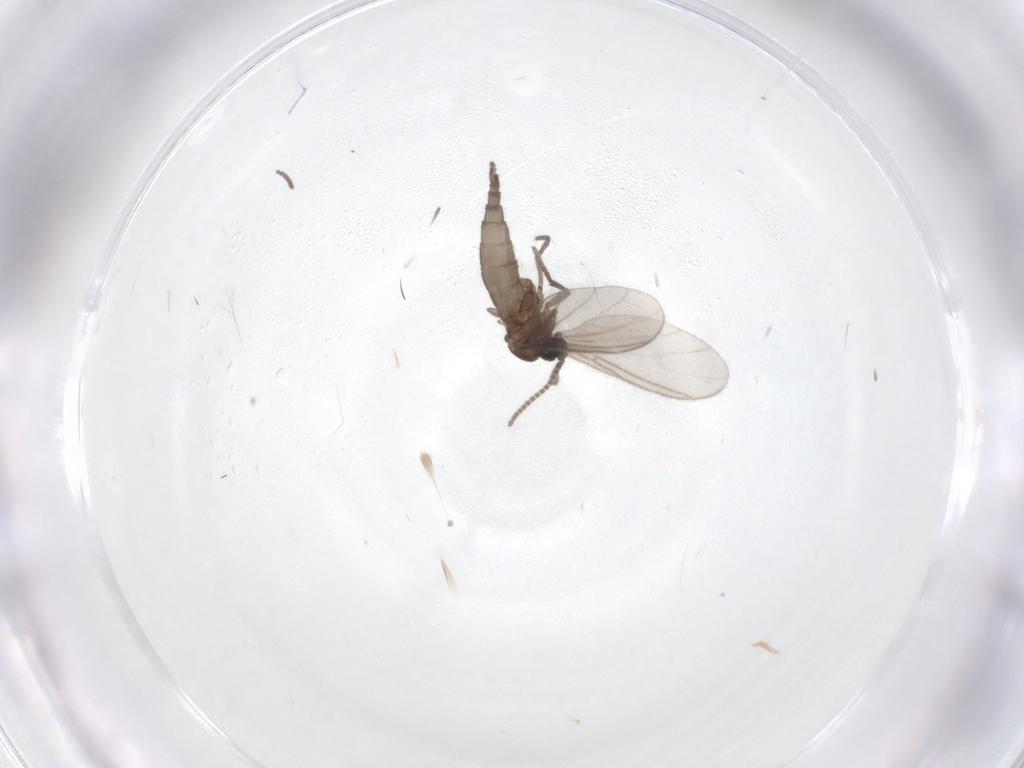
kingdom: Animalia
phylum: Arthropoda
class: Insecta
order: Diptera
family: Sciaridae
